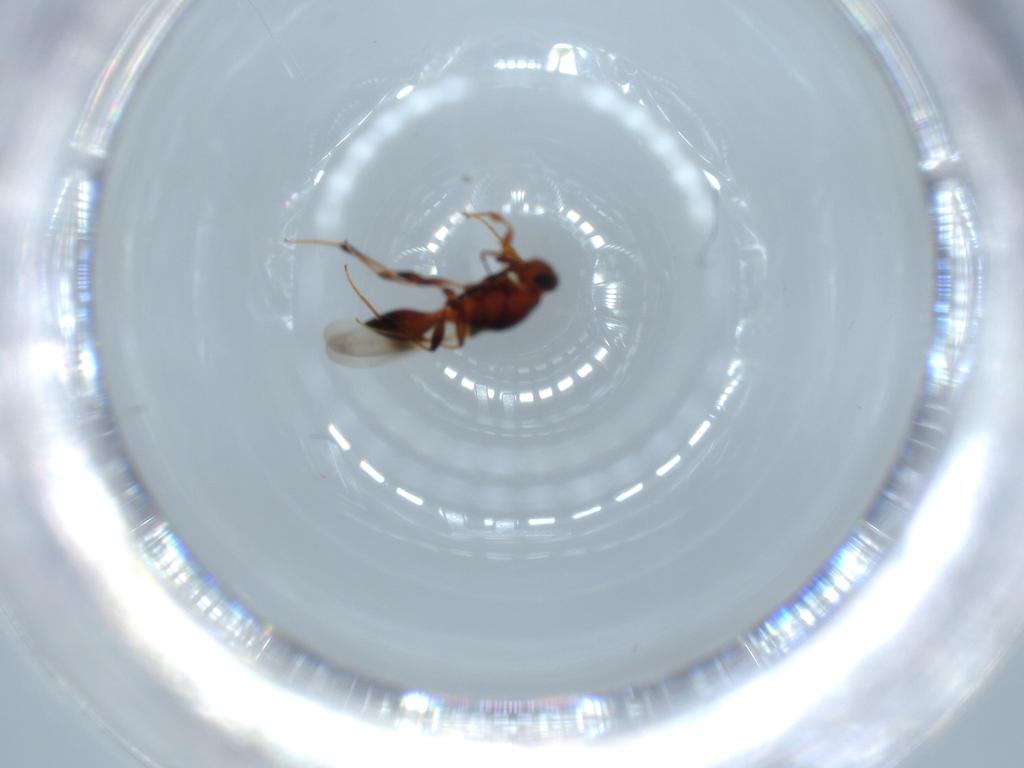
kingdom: Animalia
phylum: Arthropoda
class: Insecta
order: Hymenoptera
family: Platygastridae
